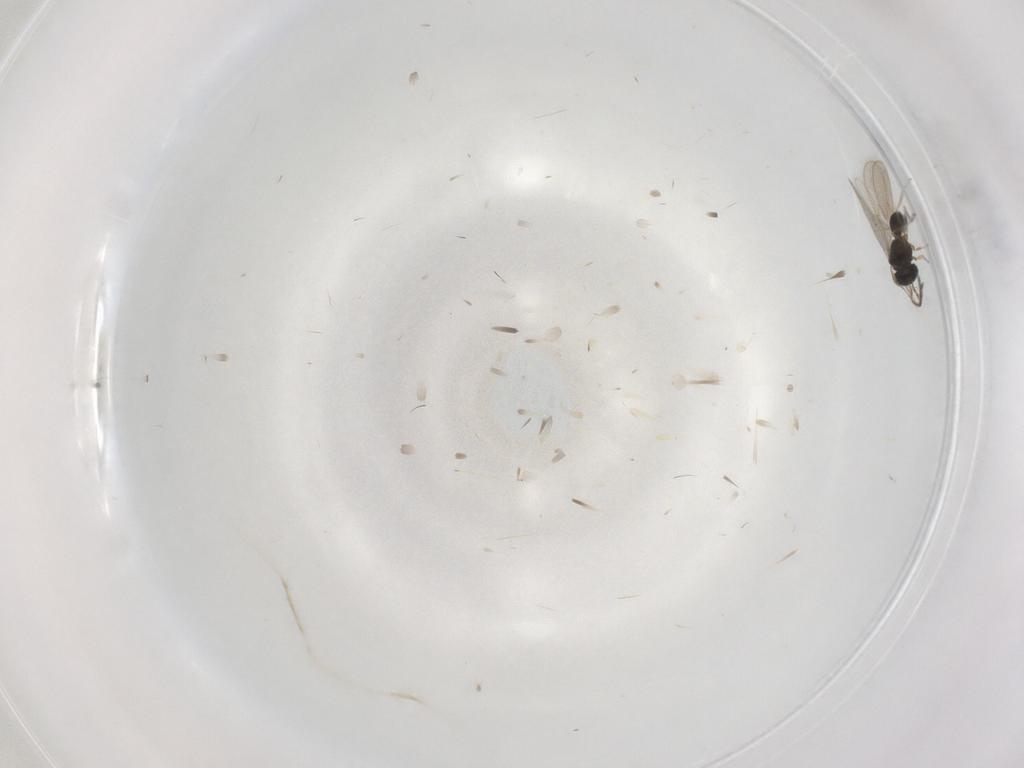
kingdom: Animalia
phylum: Arthropoda
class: Insecta
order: Hymenoptera
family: Scelionidae
